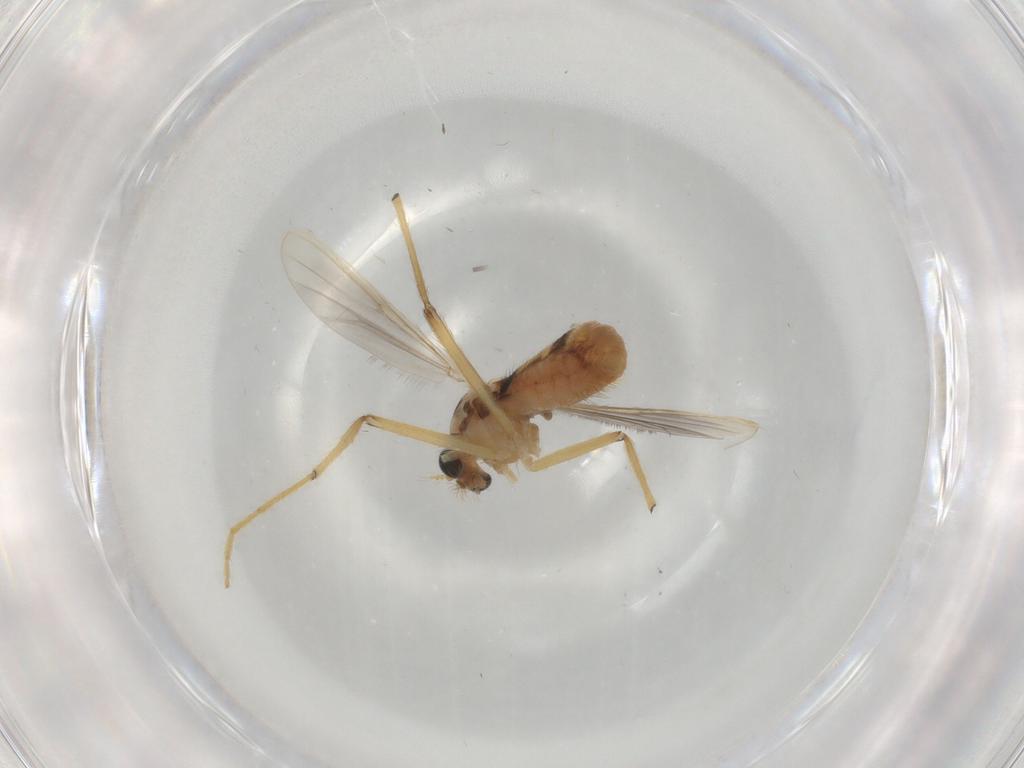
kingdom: Animalia
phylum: Arthropoda
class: Insecta
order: Diptera
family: Chironomidae
